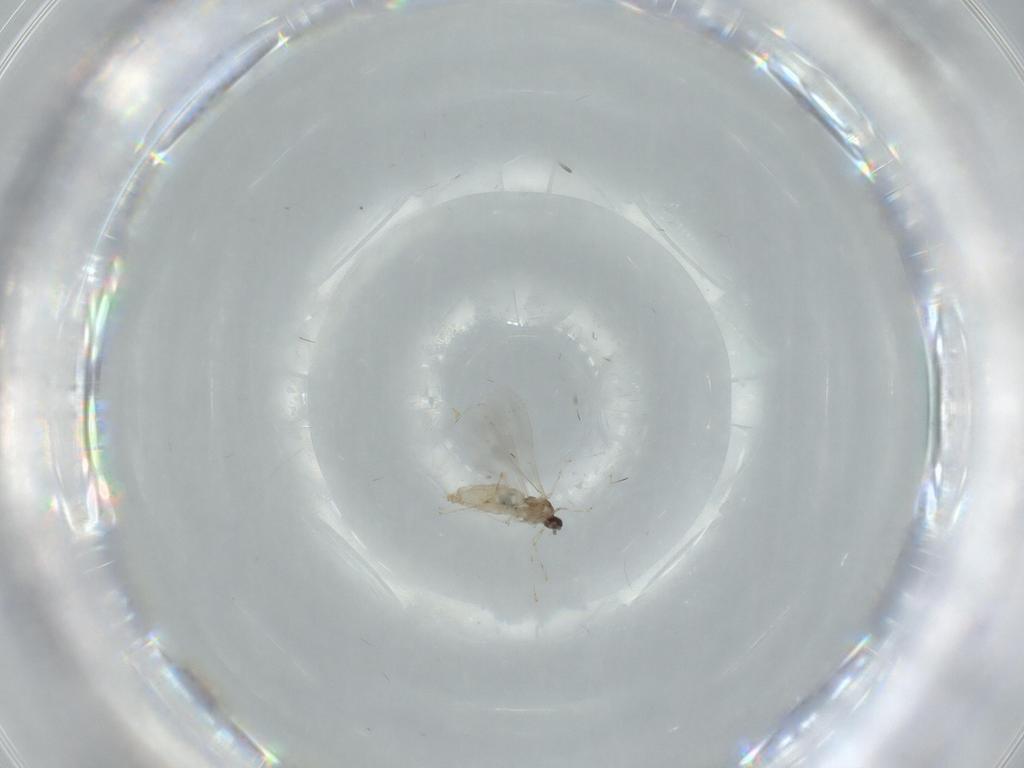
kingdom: Animalia
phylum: Arthropoda
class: Insecta
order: Diptera
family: Cecidomyiidae
